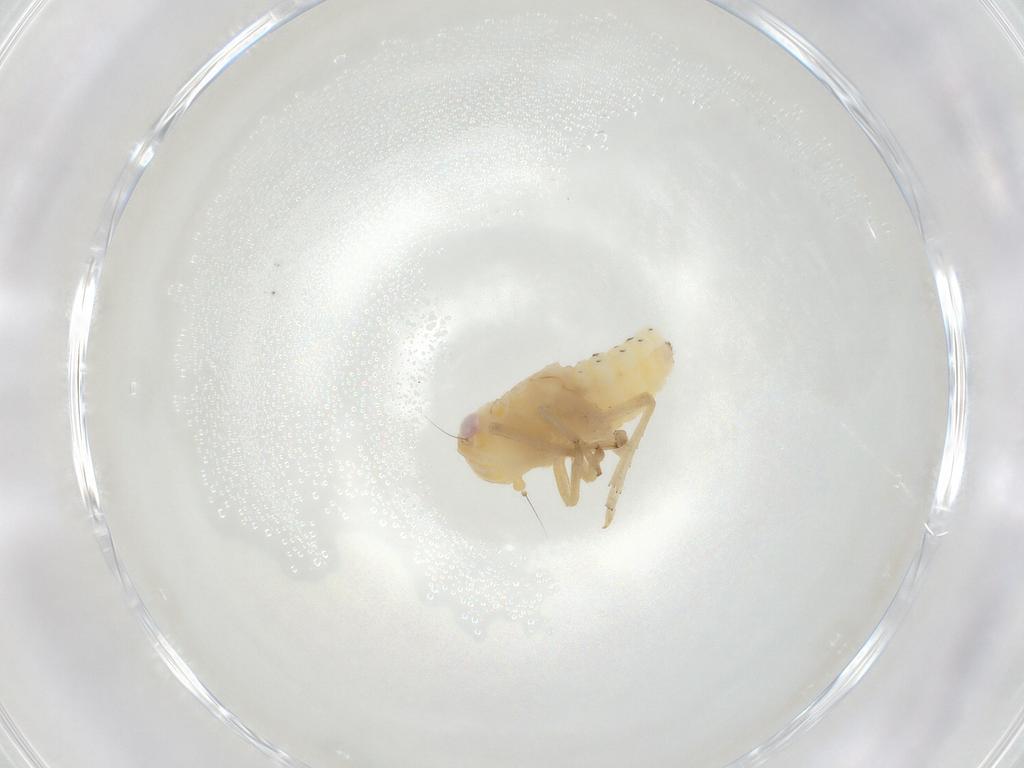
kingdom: Animalia
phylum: Arthropoda
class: Insecta
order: Hemiptera
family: Tropiduchidae
